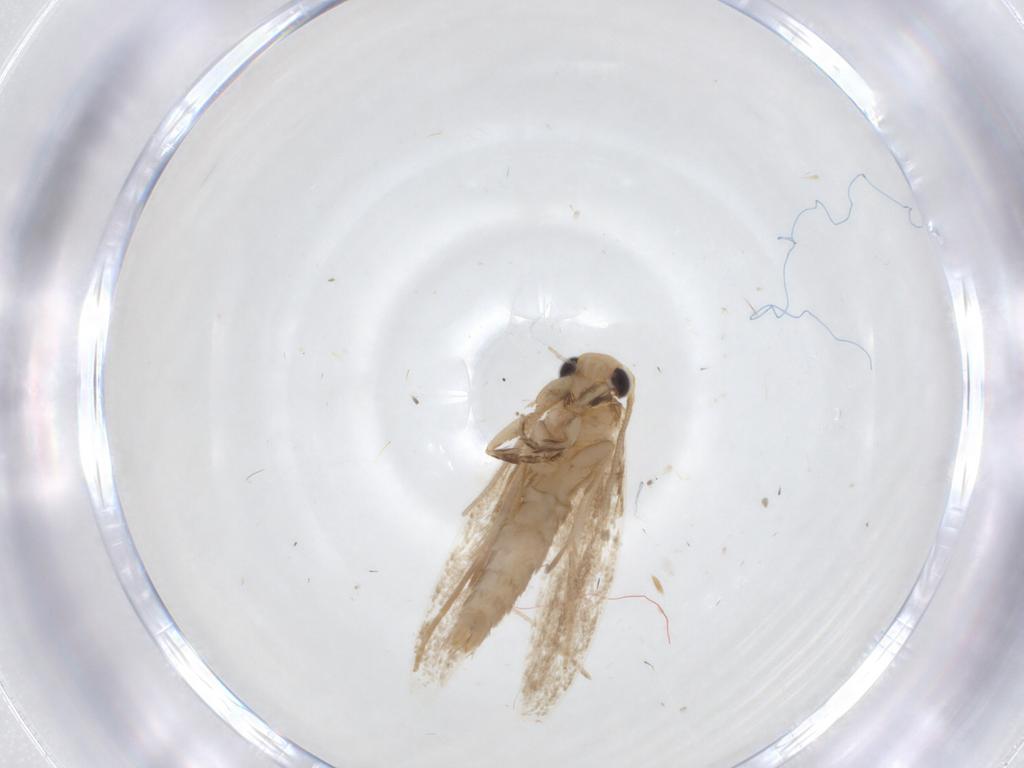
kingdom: Animalia
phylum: Arthropoda
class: Insecta
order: Lepidoptera
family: Tineidae
